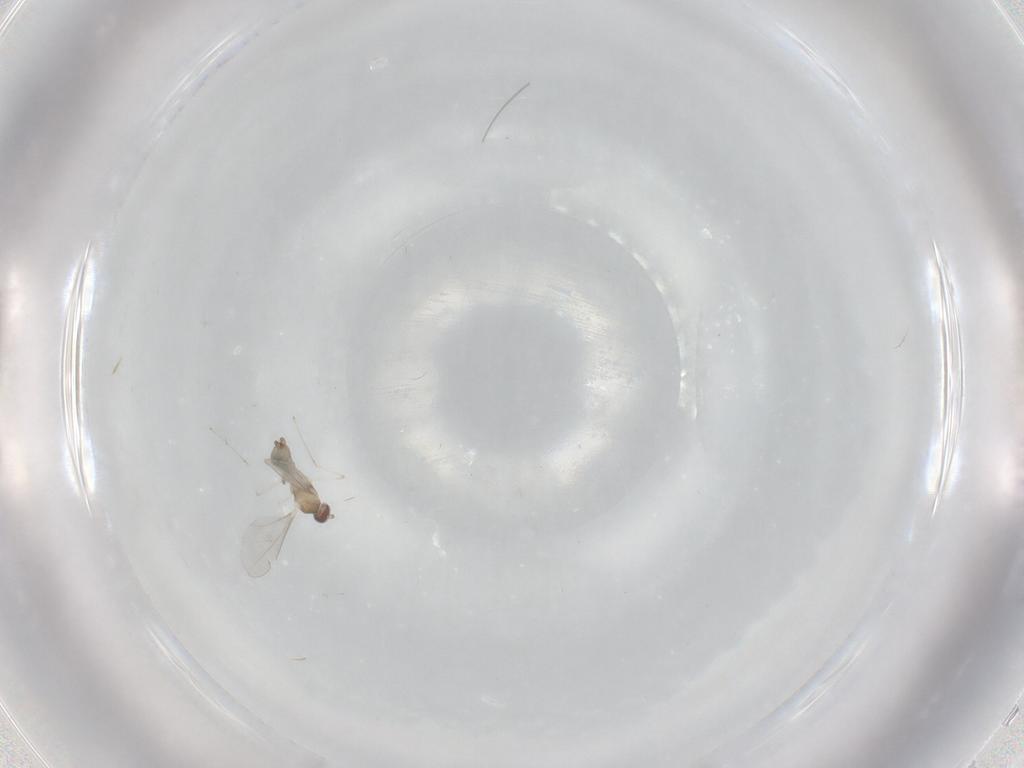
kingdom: Animalia
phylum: Arthropoda
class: Insecta
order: Diptera
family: Cecidomyiidae
